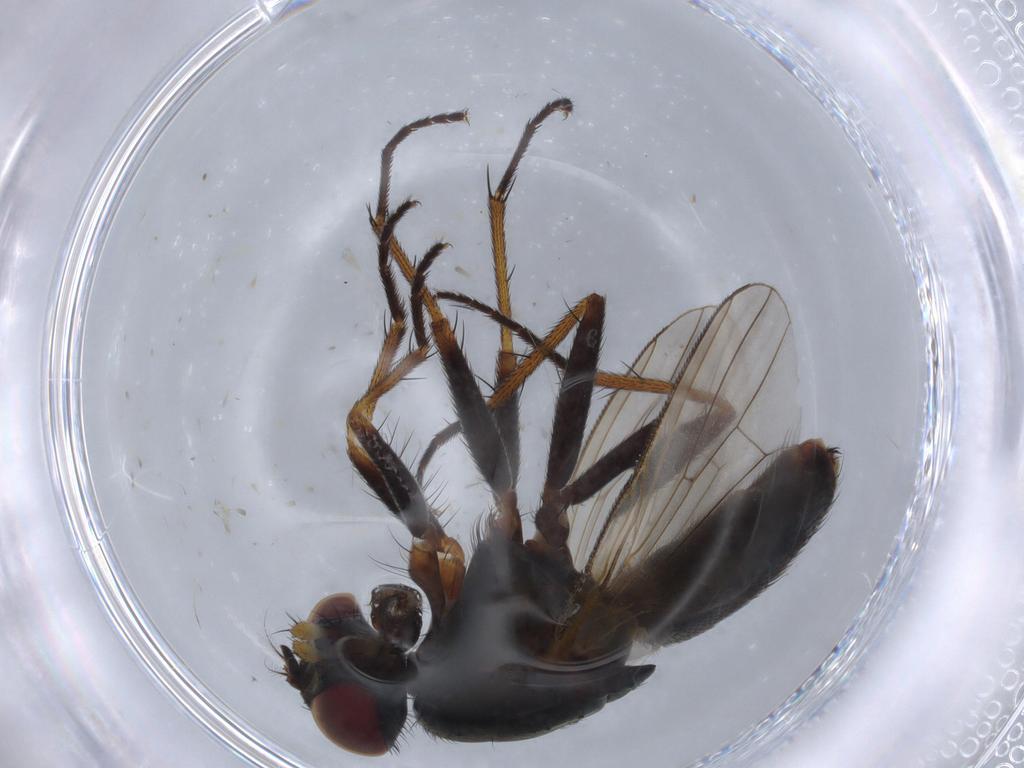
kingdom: Animalia
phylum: Arthropoda
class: Insecta
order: Diptera
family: Muscidae
